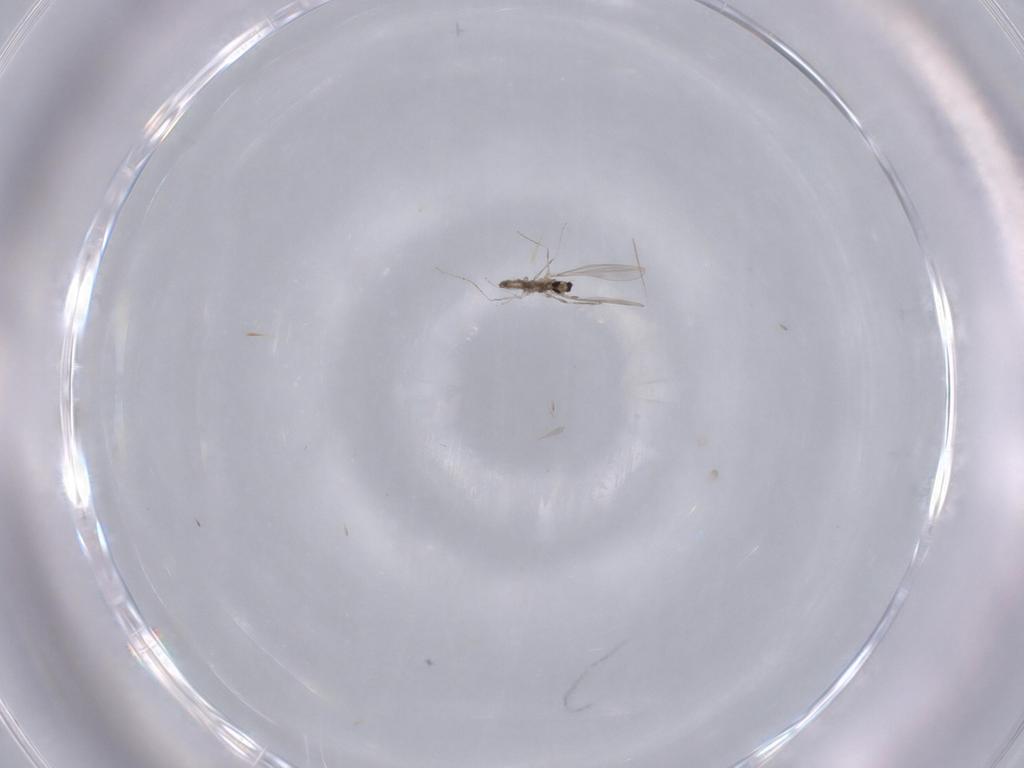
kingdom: Animalia
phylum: Arthropoda
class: Insecta
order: Diptera
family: Cecidomyiidae
